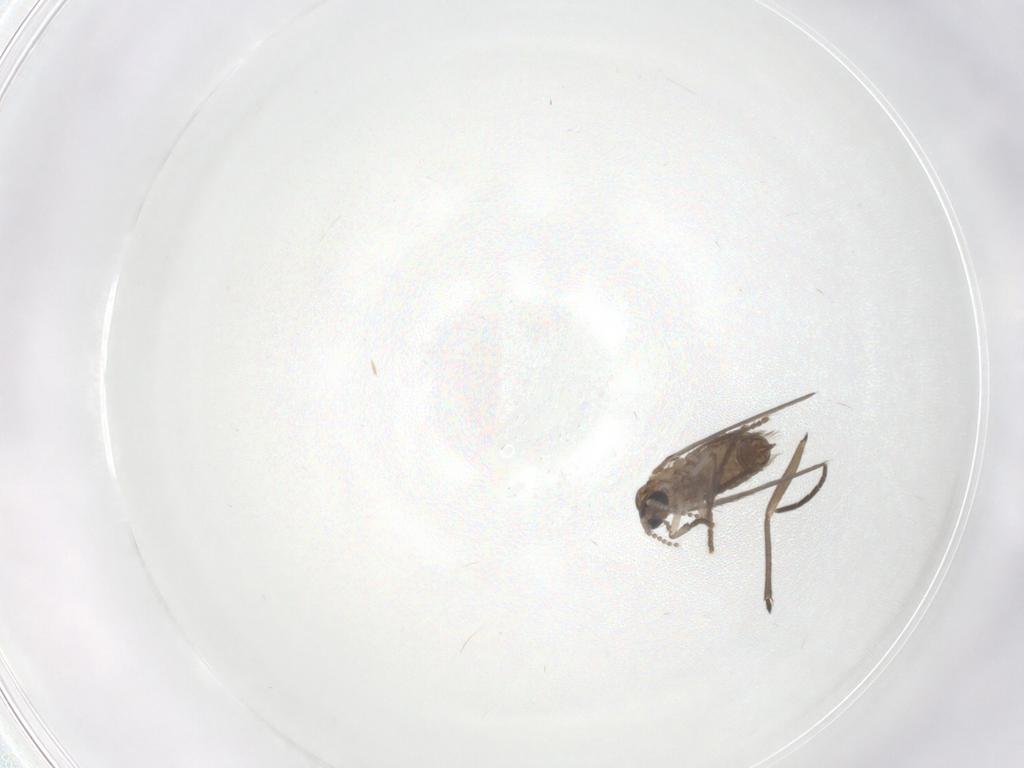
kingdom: Animalia
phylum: Arthropoda
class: Insecta
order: Diptera
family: Psychodidae
